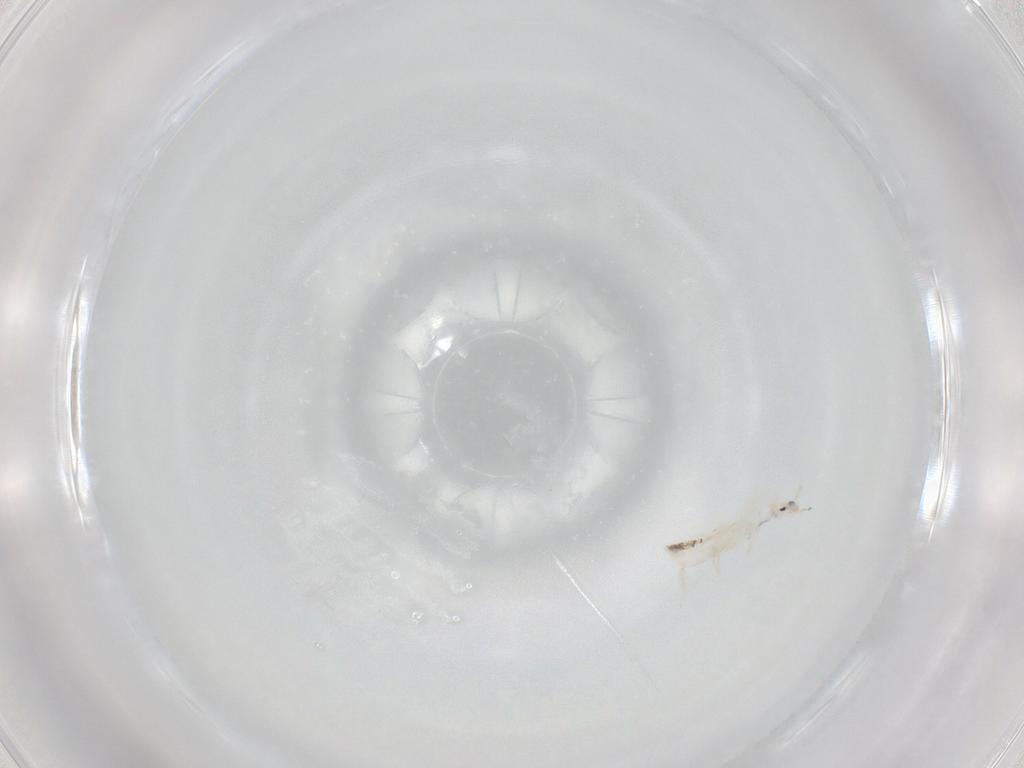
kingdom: Animalia
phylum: Arthropoda
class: Collembola
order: Entomobryomorpha
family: Entomobryidae
